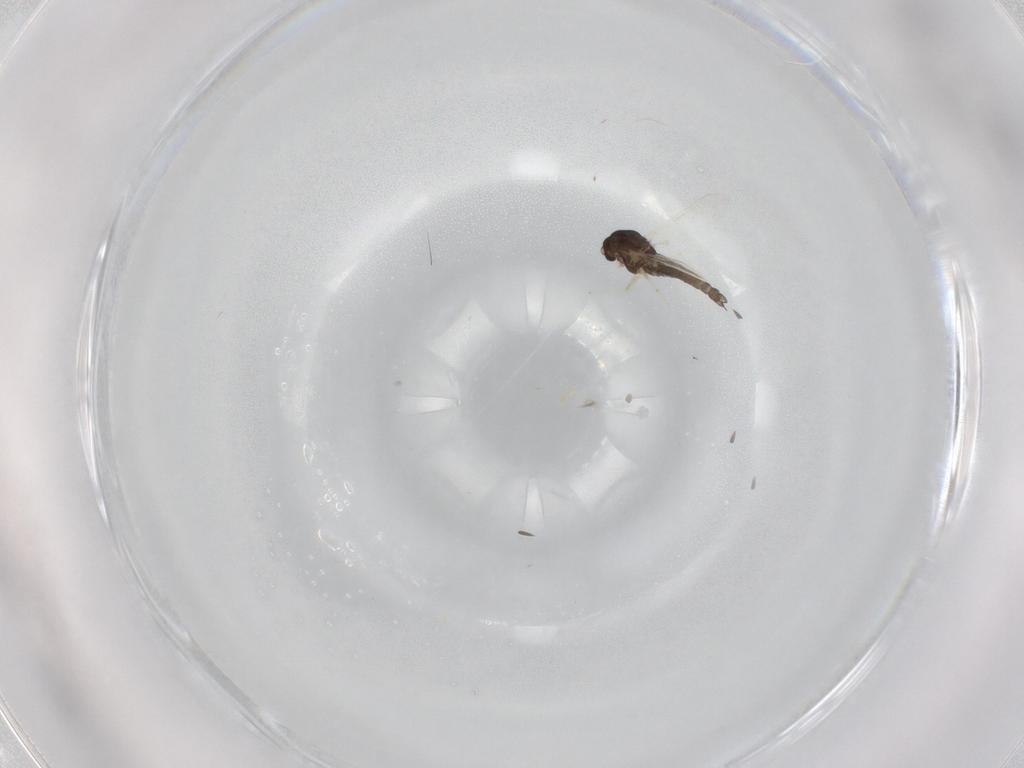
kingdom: Animalia
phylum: Arthropoda
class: Insecta
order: Diptera
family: Chironomidae
